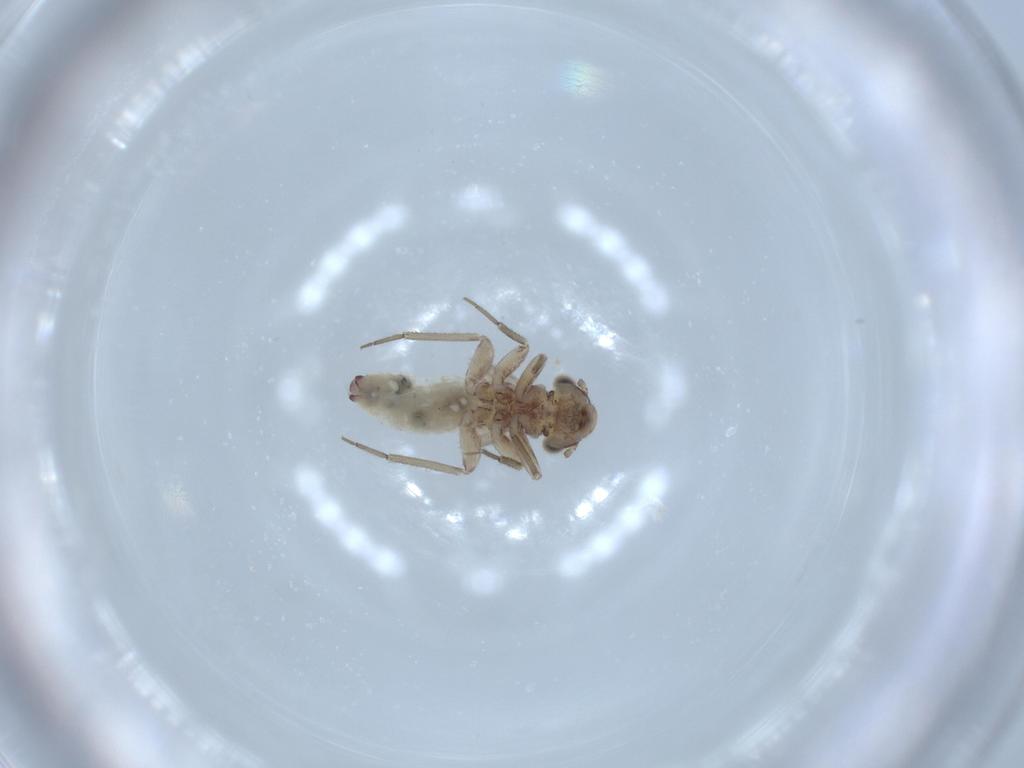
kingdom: Animalia
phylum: Arthropoda
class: Insecta
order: Psocodea
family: Lepidopsocidae
